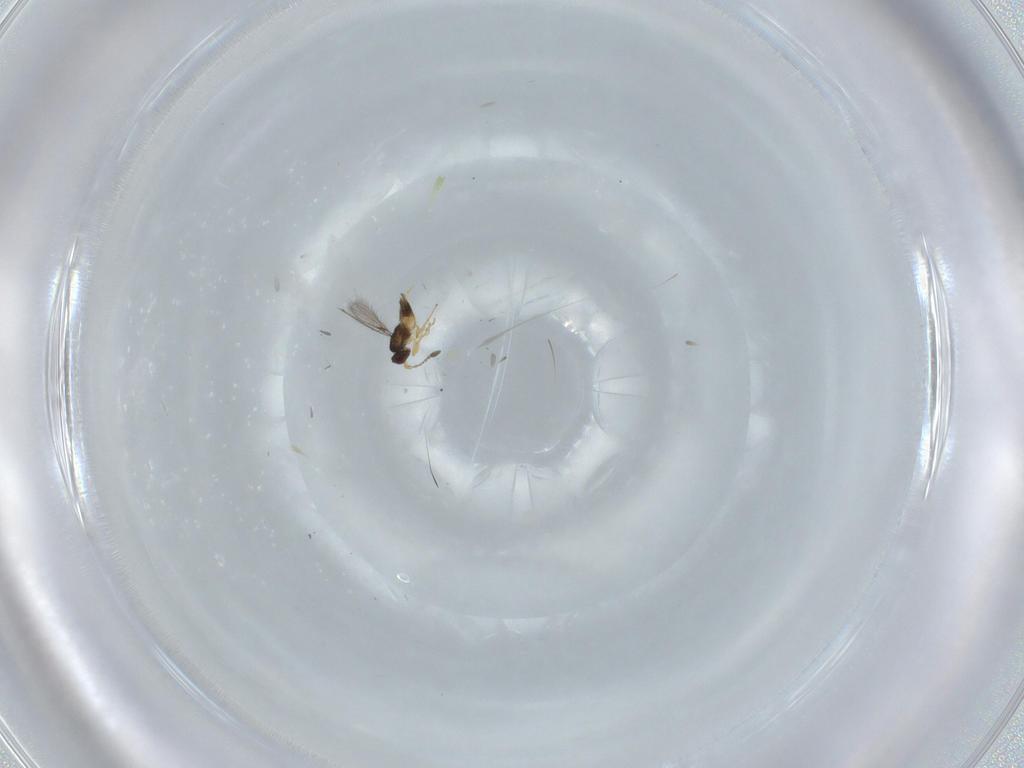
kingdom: Animalia
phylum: Arthropoda
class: Insecta
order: Hymenoptera
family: Mymaridae
